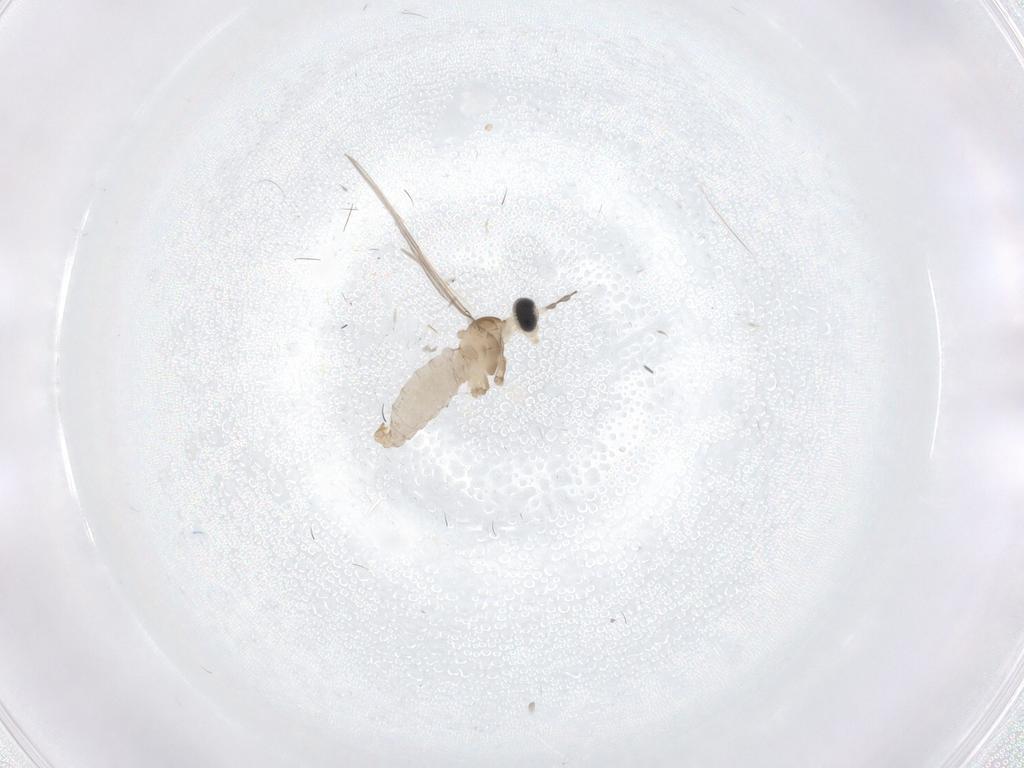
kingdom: Animalia
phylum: Arthropoda
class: Insecta
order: Diptera
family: Cecidomyiidae
